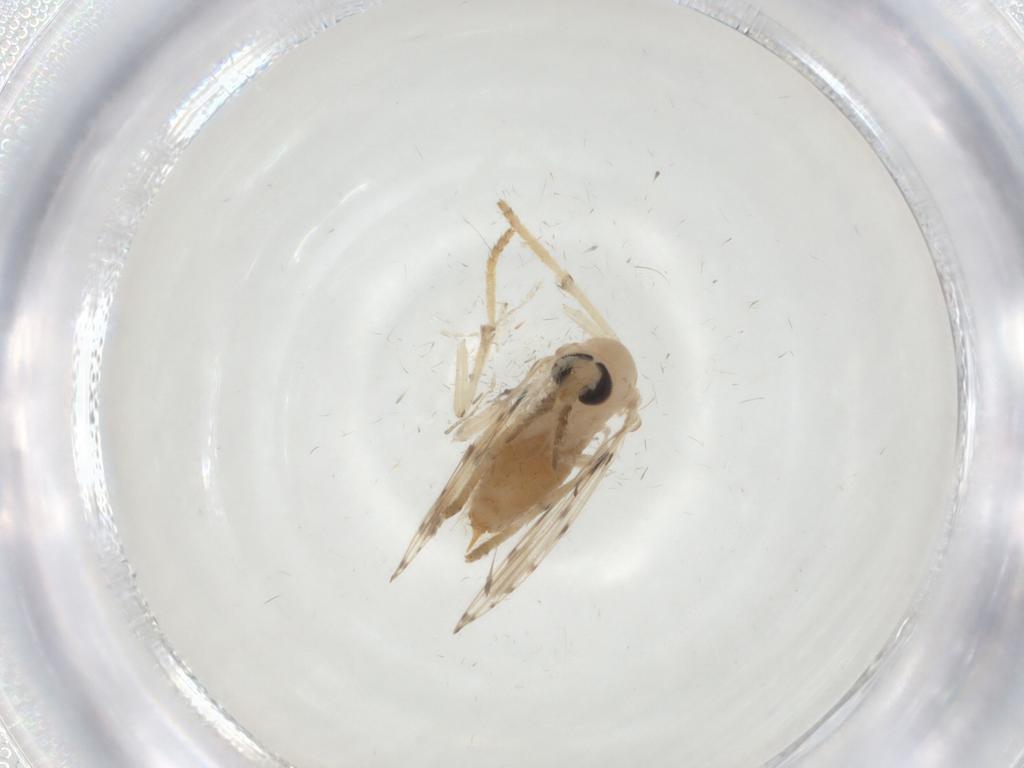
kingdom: Animalia
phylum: Arthropoda
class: Insecta
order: Diptera
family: Psychodidae
